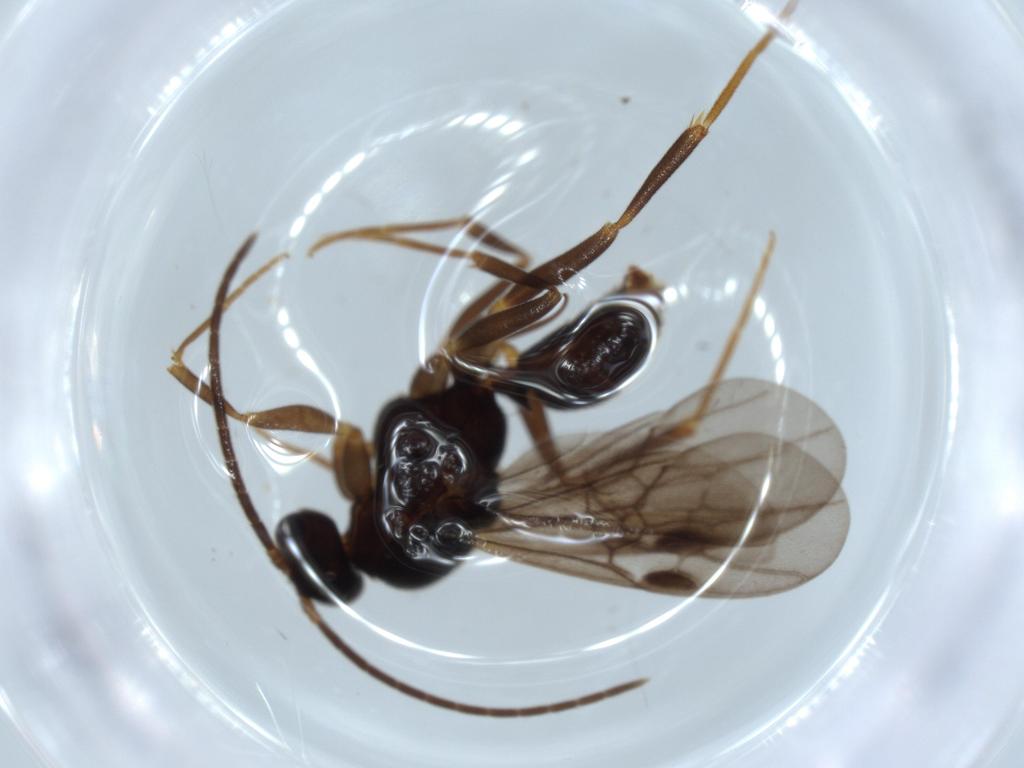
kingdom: Animalia
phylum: Arthropoda
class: Insecta
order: Hymenoptera
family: Formicidae
